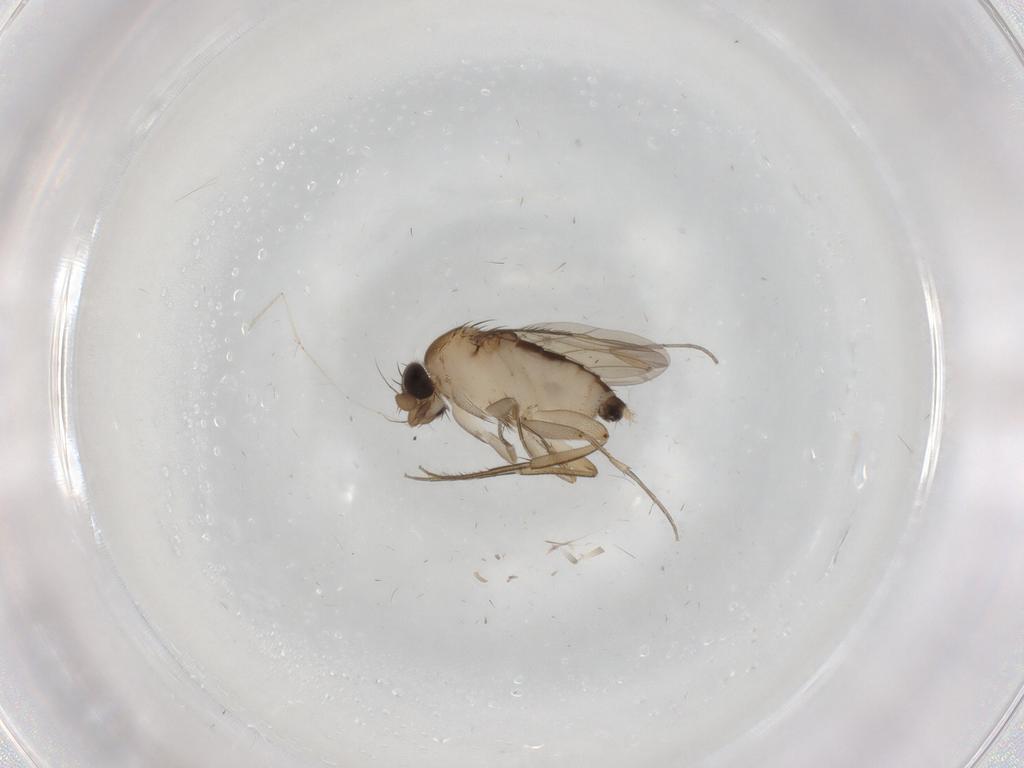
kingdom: Animalia
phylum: Arthropoda
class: Insecta
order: Diptera
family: Phoridae
